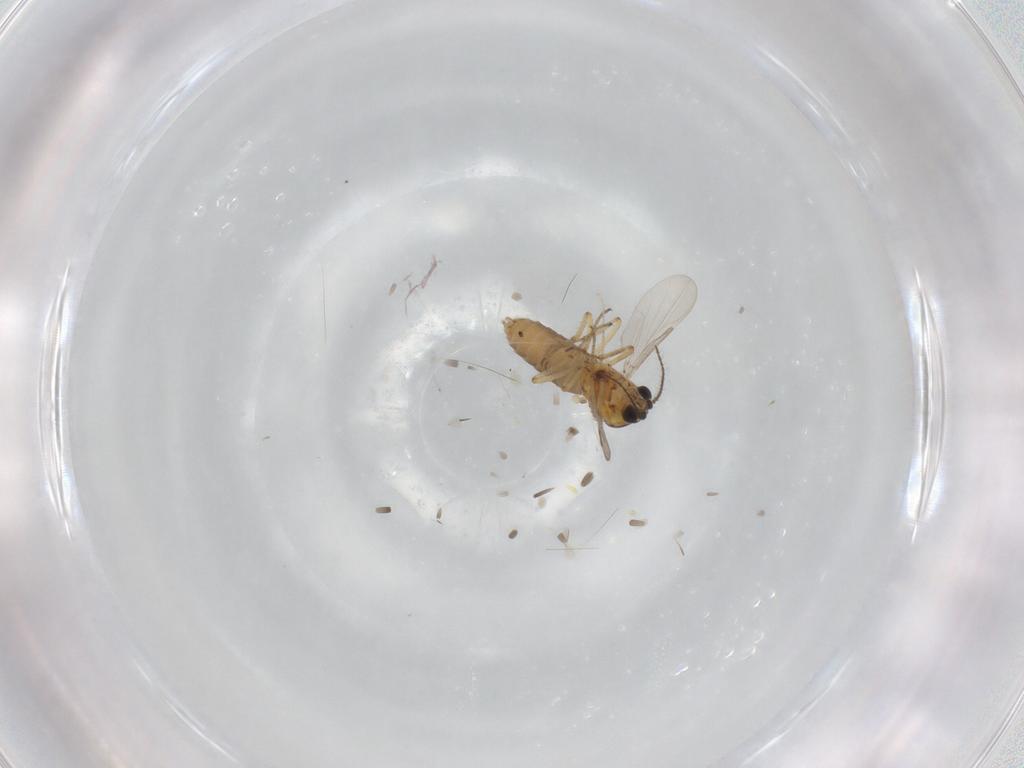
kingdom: Animalia
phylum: Arthropoda
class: Insecta
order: Diptera
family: Ceratopogonidae
